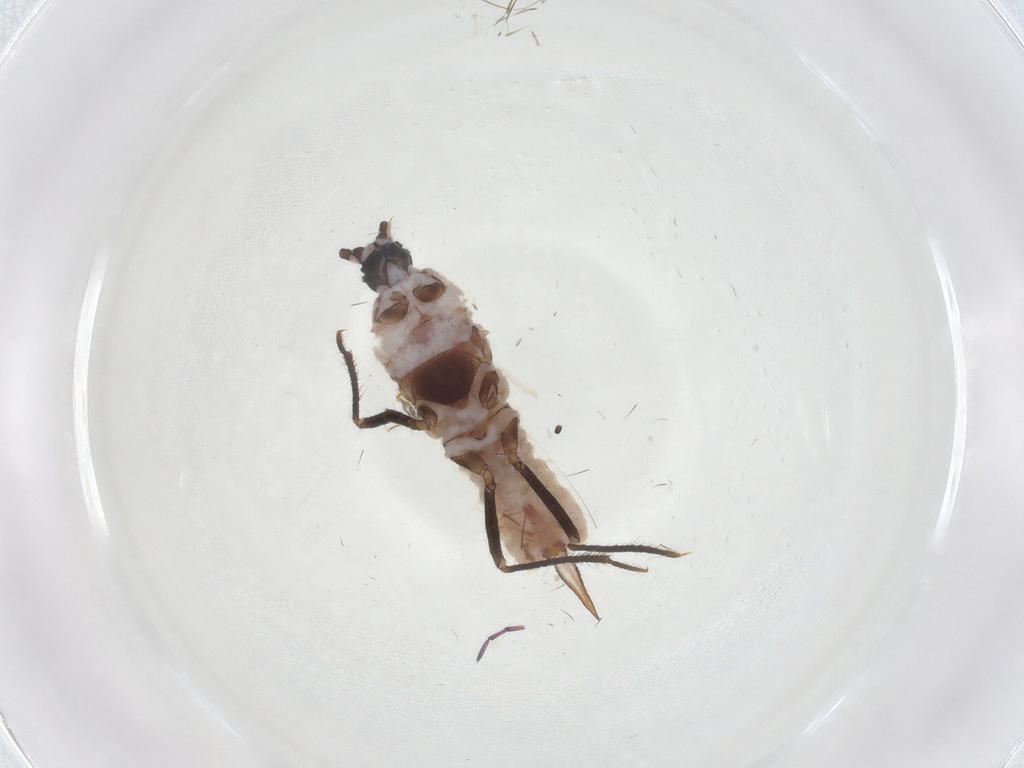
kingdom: Animalia
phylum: Arthropoda
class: Insecta
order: Hemiptera
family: Putoidae
